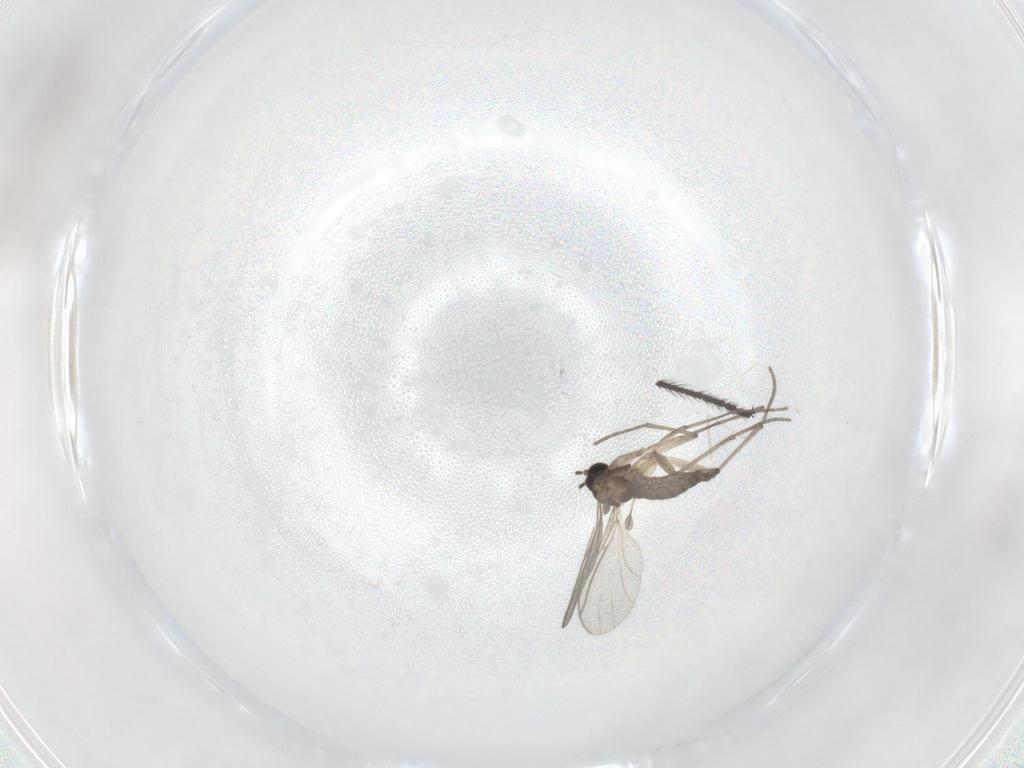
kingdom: Animalia
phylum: Arthropoda
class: Insecta
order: Diptera
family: Sciaridae
